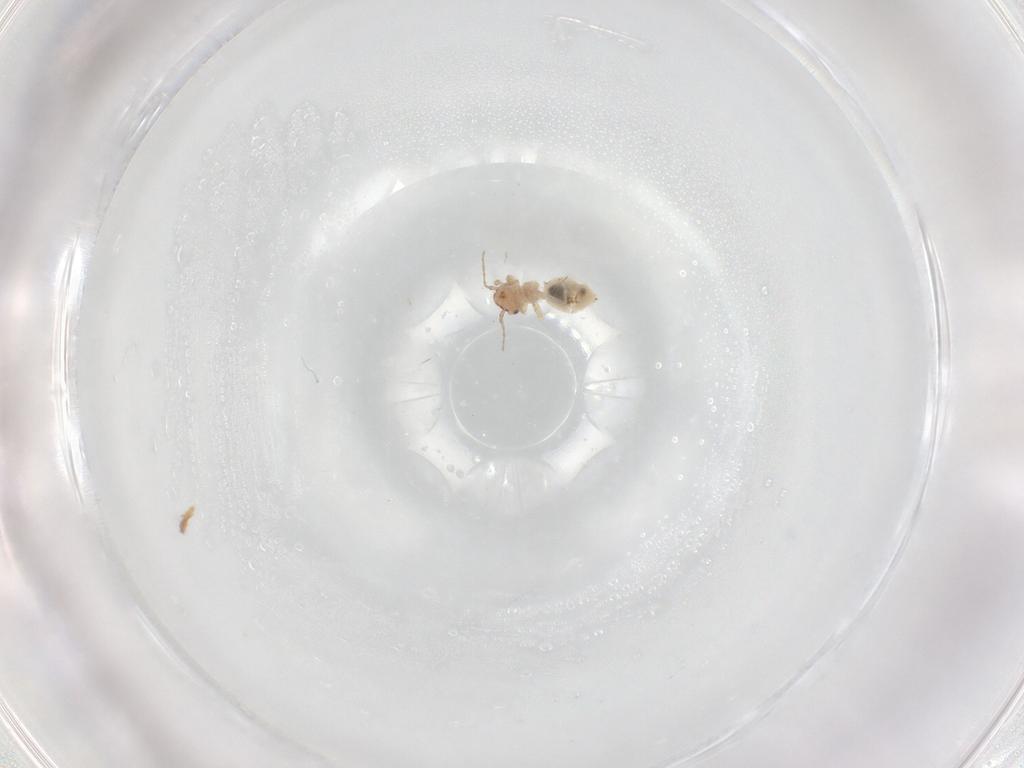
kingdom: Animalia
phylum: Arthropoda
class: Insecta
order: Psocodea
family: Lepidopsocidae
